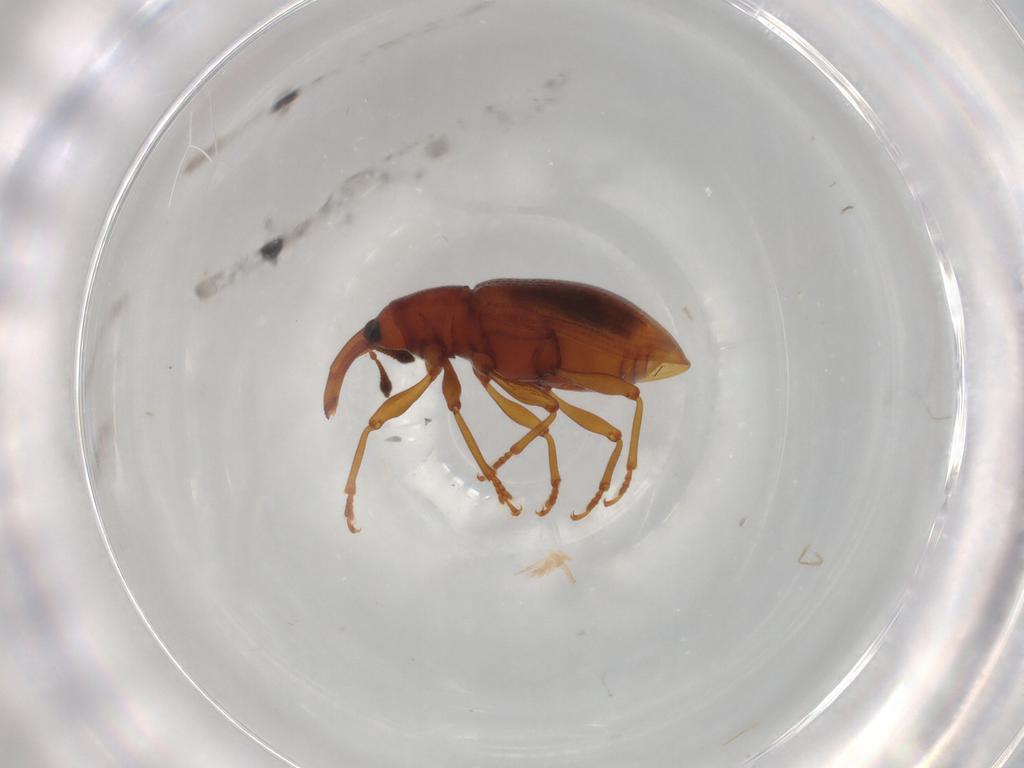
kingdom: Animalia
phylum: Arthropoda
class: Insecta
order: Coleoptera
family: Curculionidae
